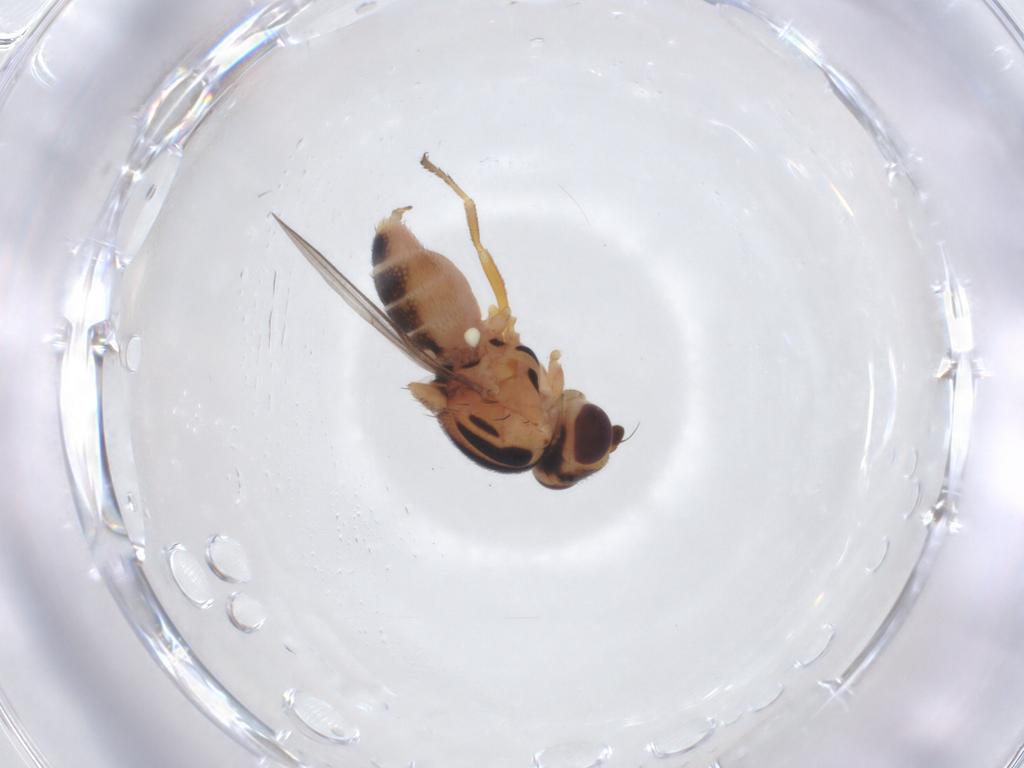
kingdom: Animalia
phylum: Arthropoda
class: Insecta
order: Diptera
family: Chloropidae
